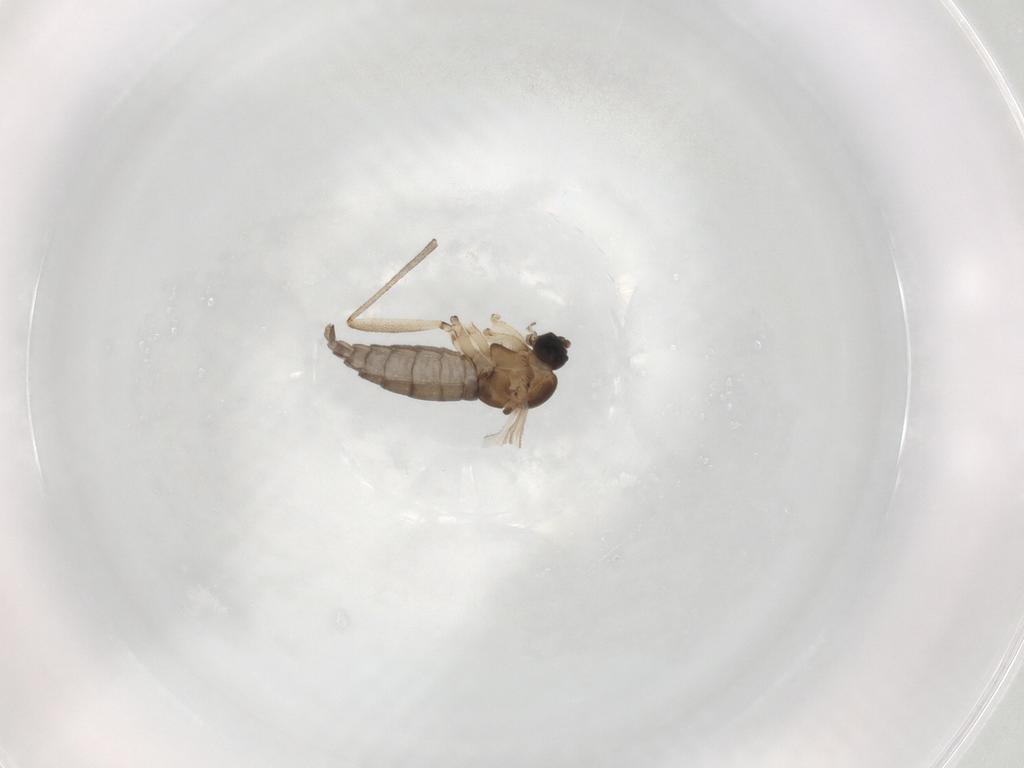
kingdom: Animalia
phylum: Arthropoda
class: Insecta
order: Diptera
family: Sciaridae
